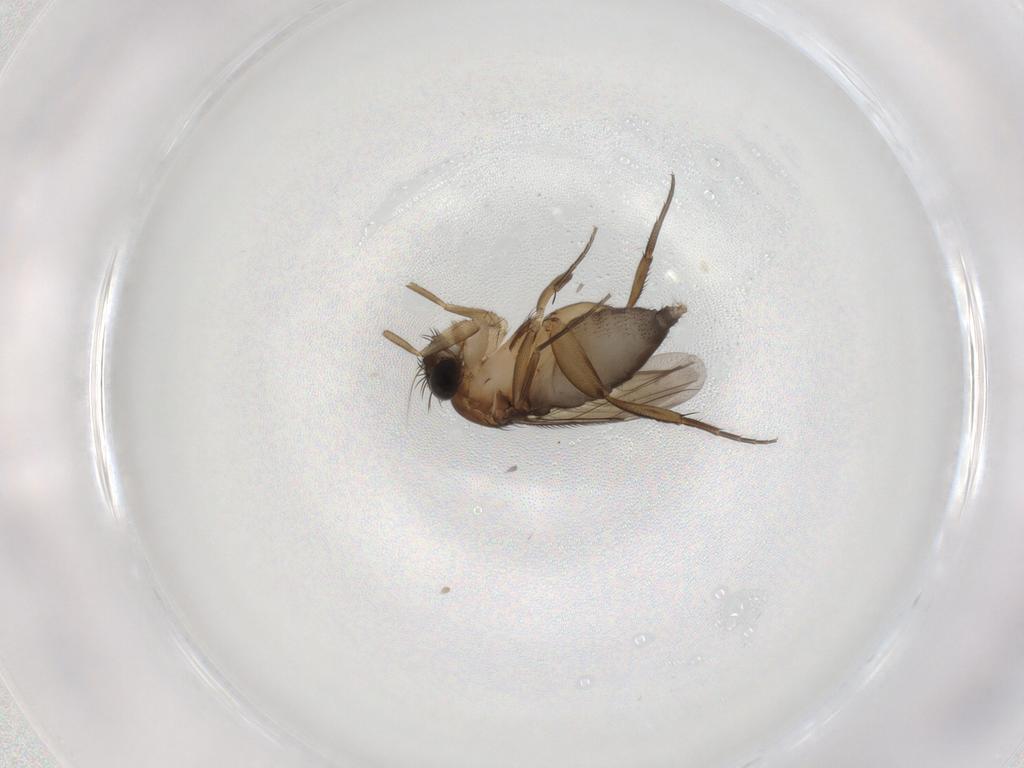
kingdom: Animalia
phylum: Arthropoda
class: Insecta
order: Diptera
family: Phoridae
